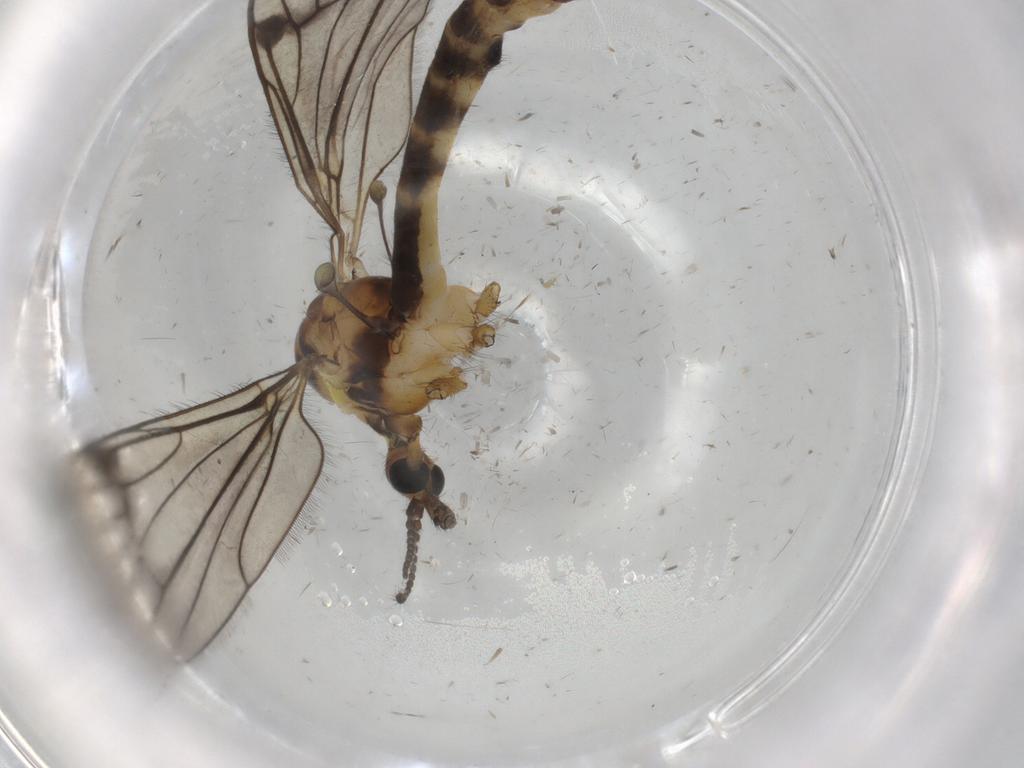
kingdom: Animalia
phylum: Arthropoda
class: Insecta
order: Diptera
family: Limoniidae
